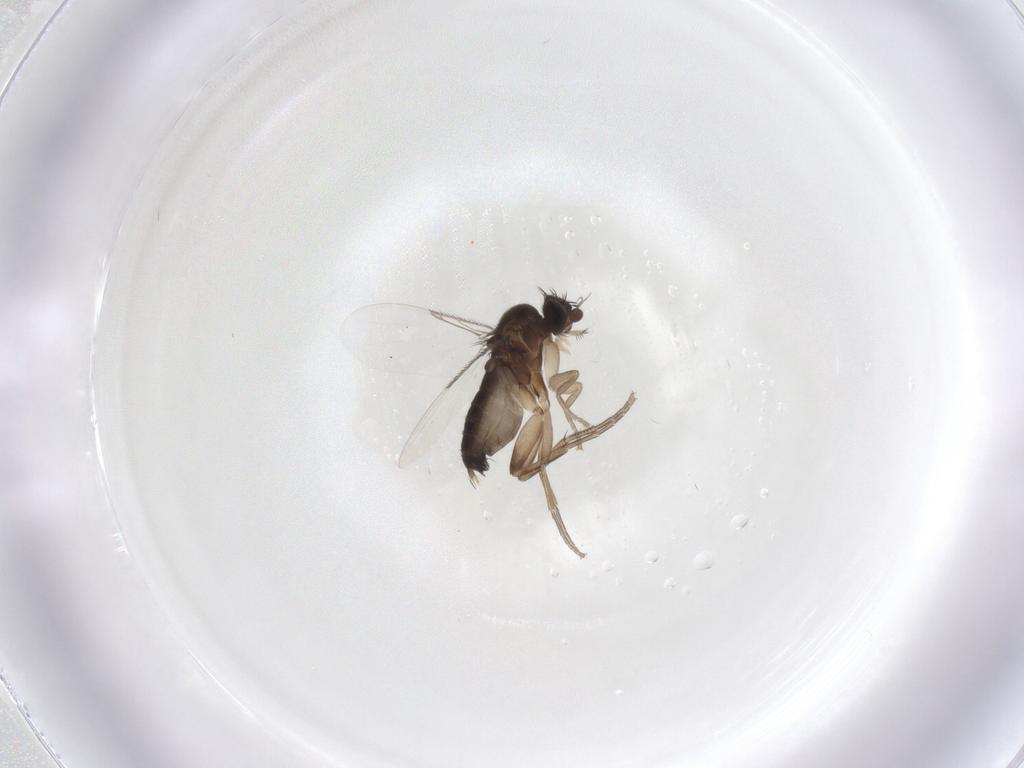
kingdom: Animalia
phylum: Arthropoda
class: Insecta
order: Diptera
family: Phoridae
